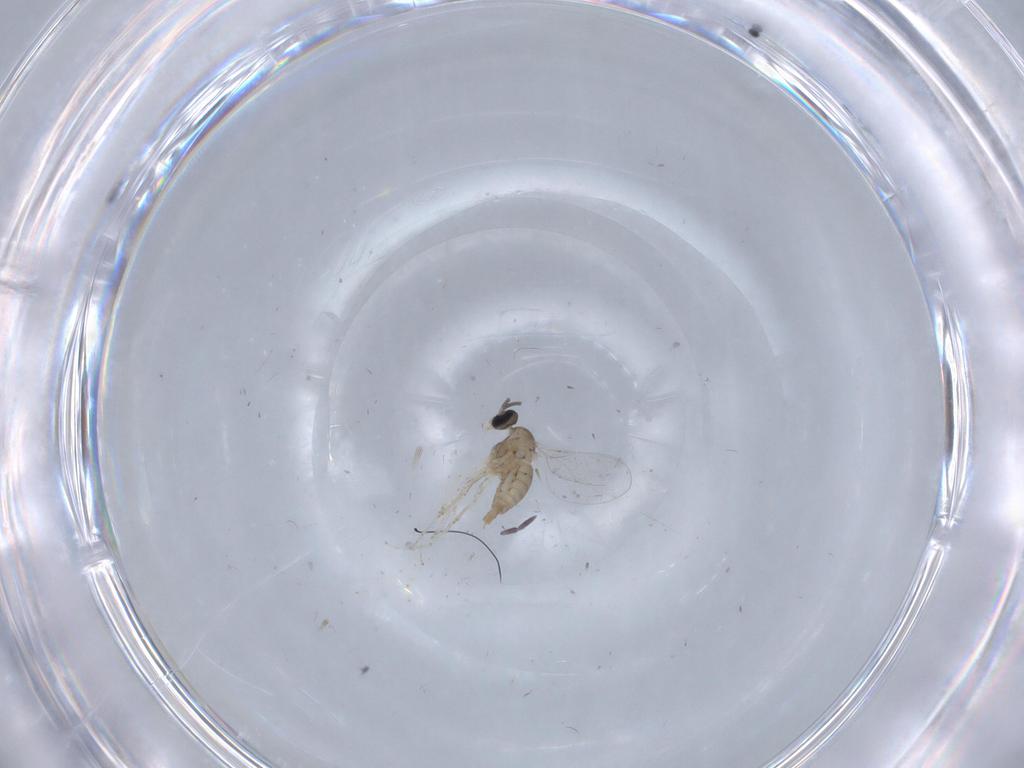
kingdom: Animalia
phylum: Arthropoda
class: Insecta
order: Diptera
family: Cecidomyiidae
